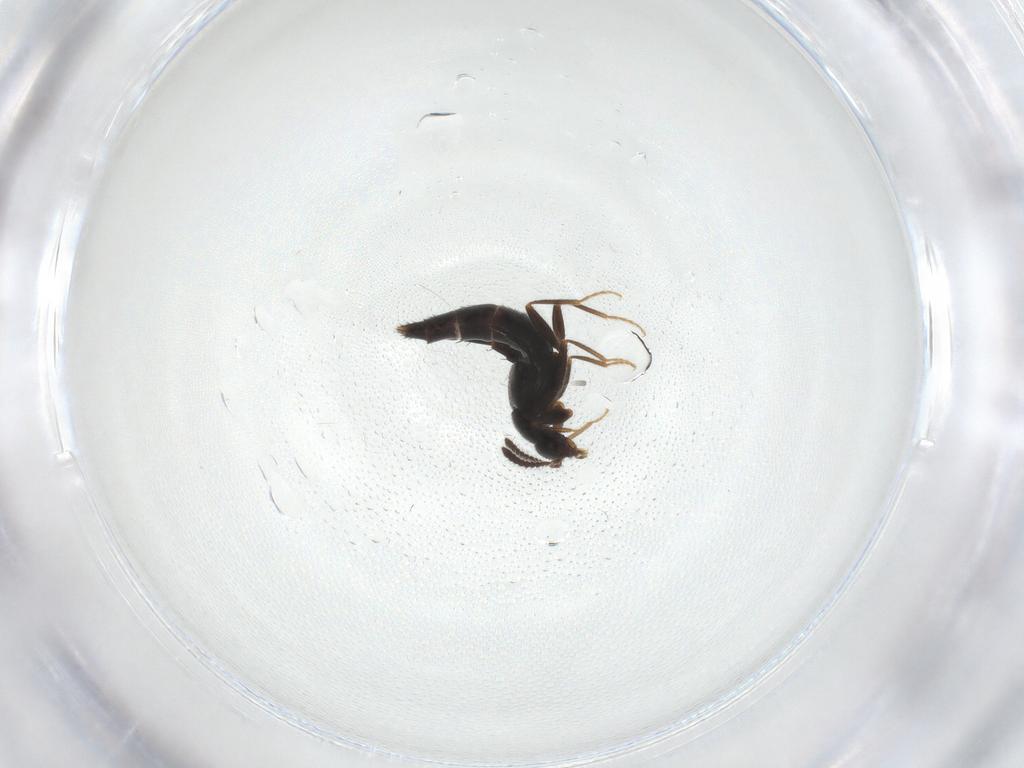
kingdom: Animalia
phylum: Arthropoda
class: Insecta
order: Coleoptera
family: Staphylinidae
